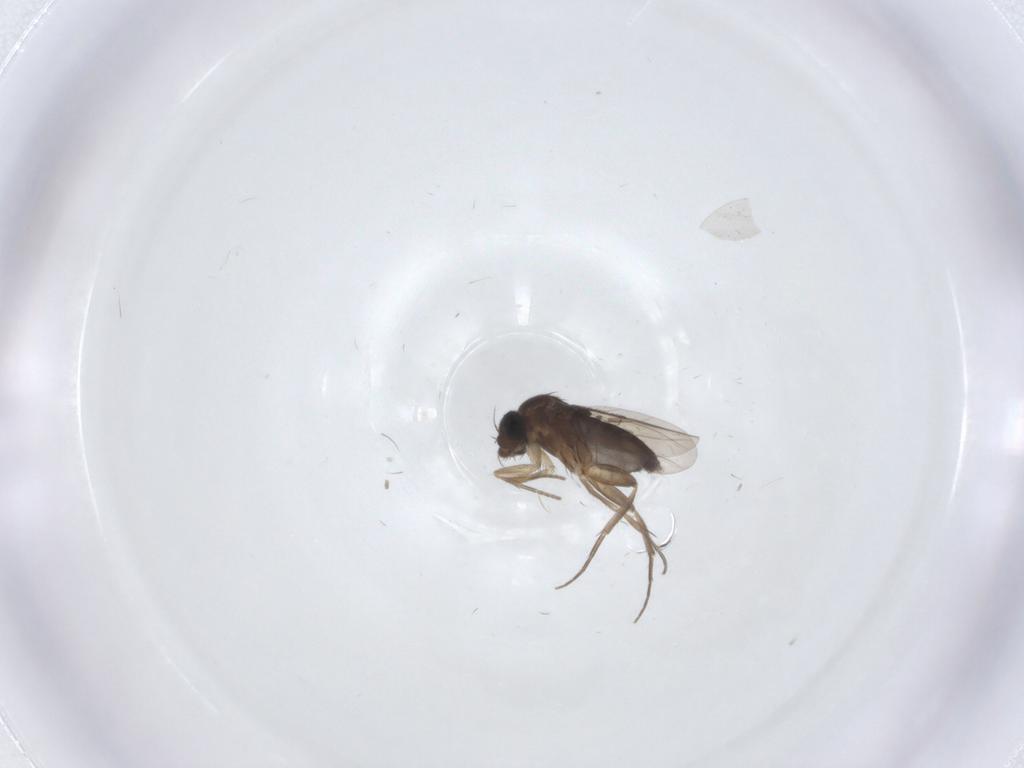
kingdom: Animalia
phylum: Arthropoda
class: Insecta
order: Diptera
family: Phoridae
